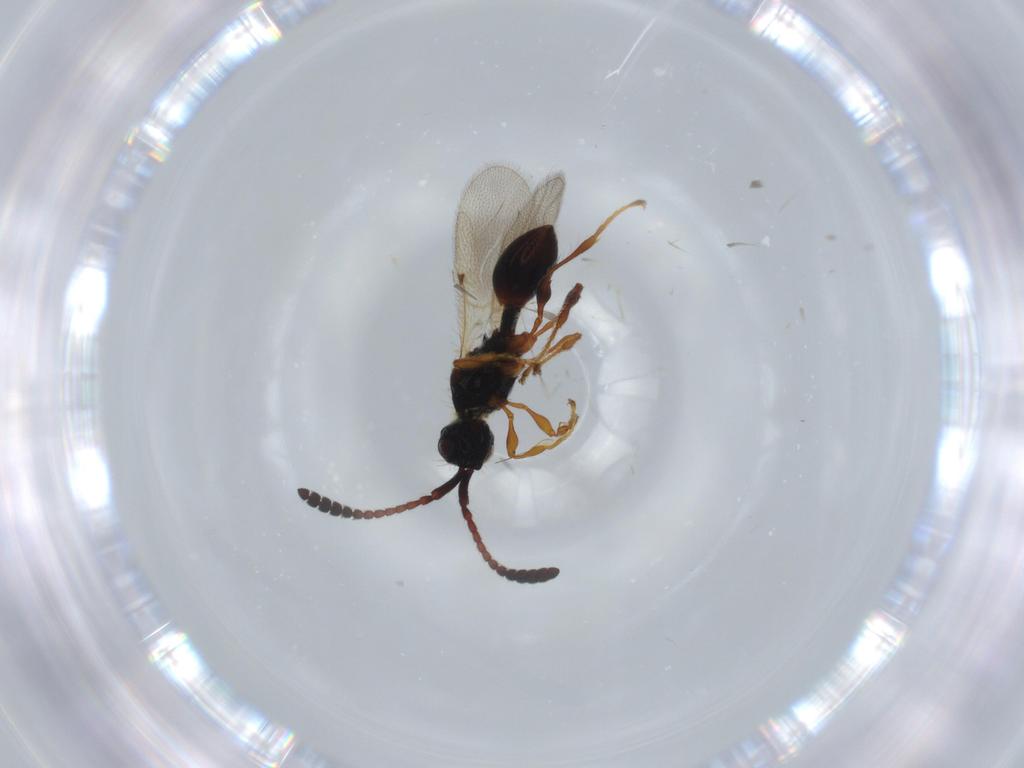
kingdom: Animalia
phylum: Arthropoda
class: Insecta
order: Hymenoptera
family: Diapriidae
